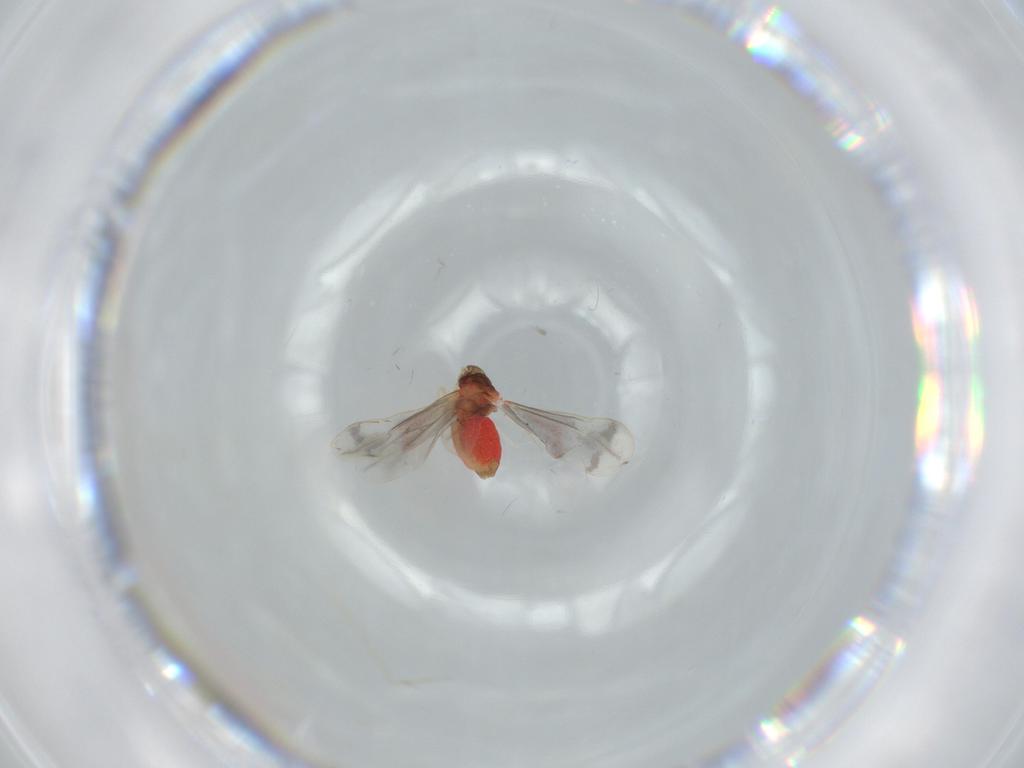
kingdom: Animalia
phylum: Arthropoda
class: Insecta
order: Hemiptera
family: Aleyrodidae
